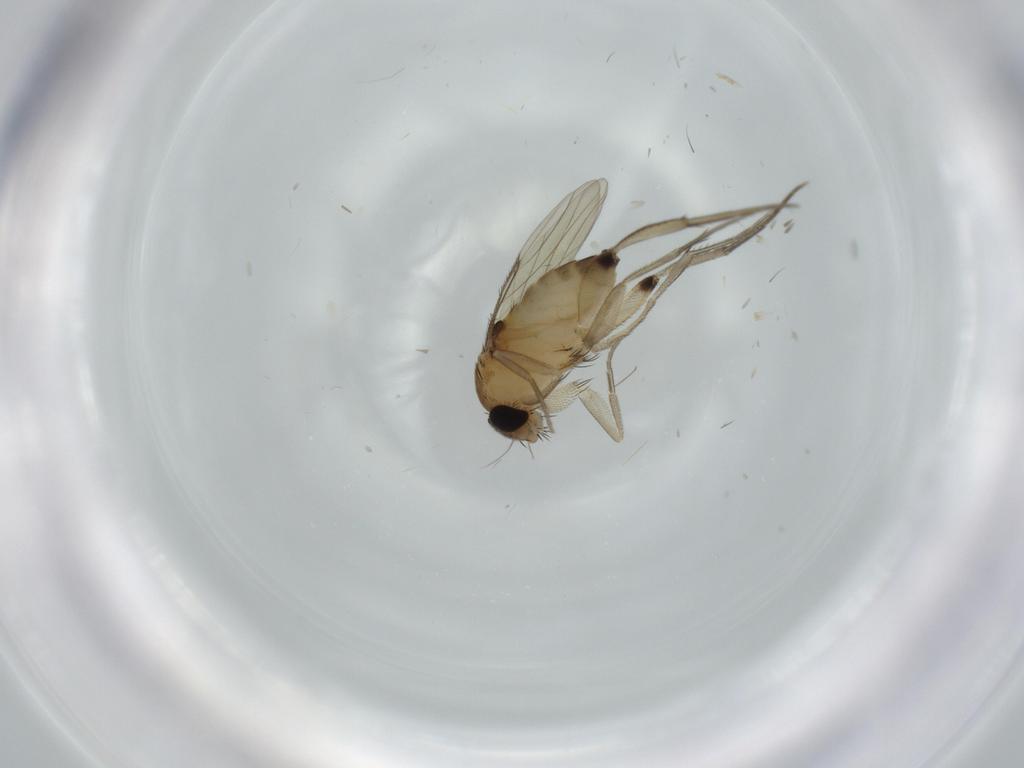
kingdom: Animalia
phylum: Arthropoda
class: Insecta
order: Diptera
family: Phoridae
